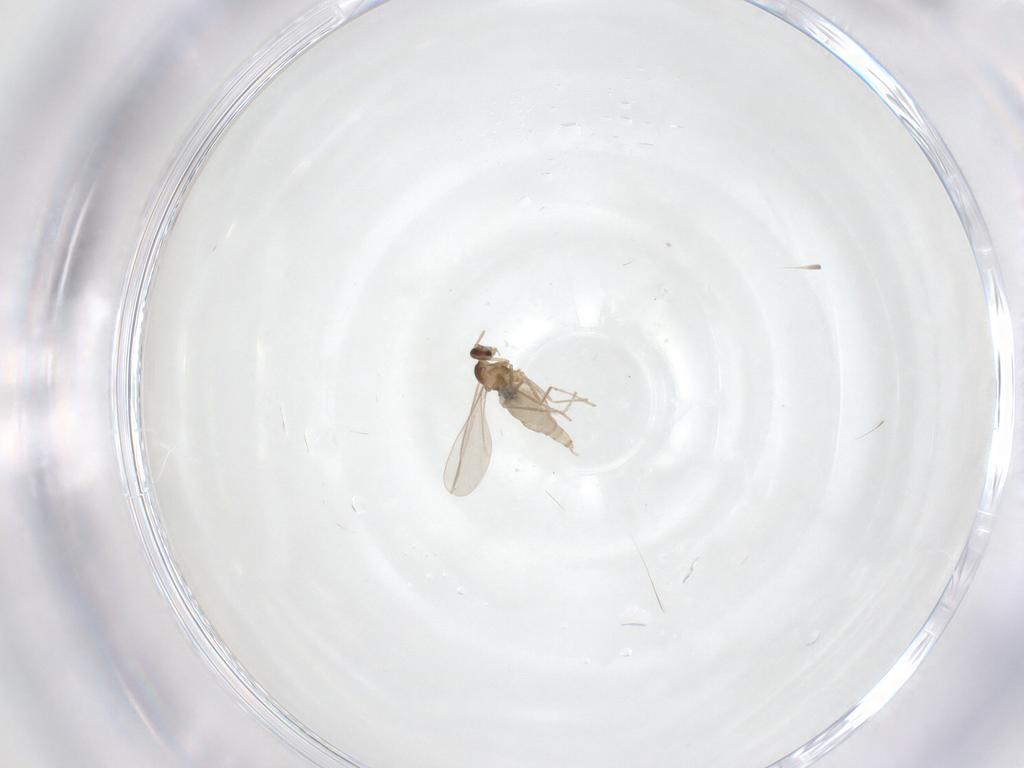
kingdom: Animalia
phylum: Arthropoda
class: Insecta
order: Diptera
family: Cecidomyiidae
